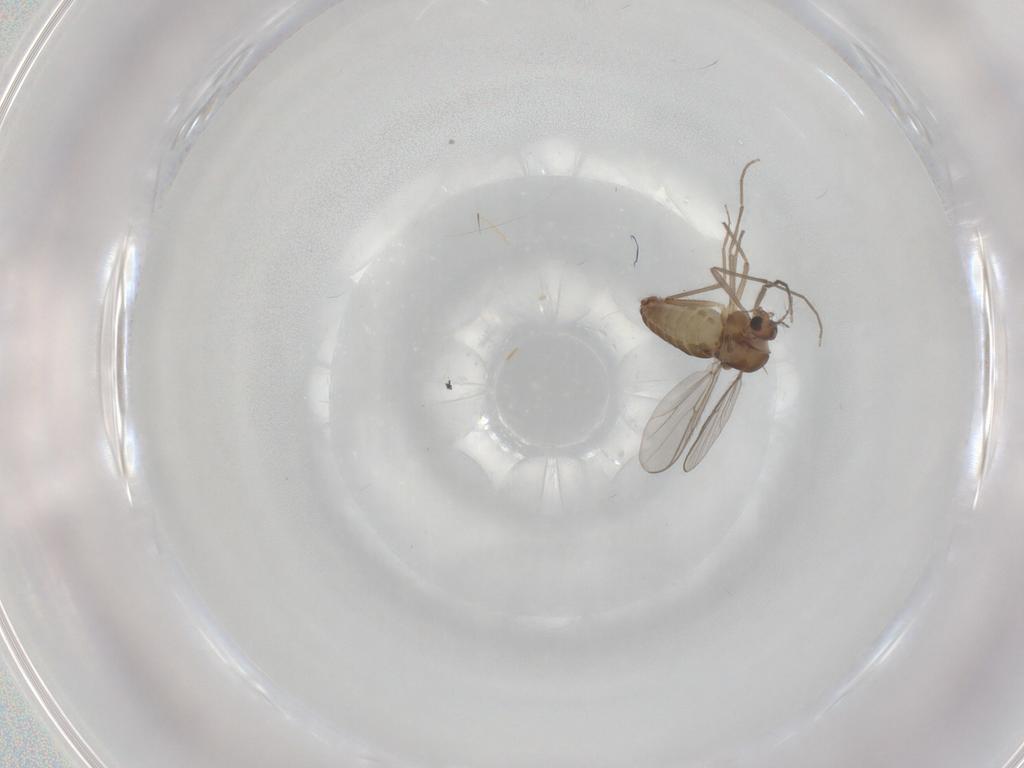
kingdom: Animalia
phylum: Arthropoda
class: Insecta
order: Diptera
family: Chironomidae
